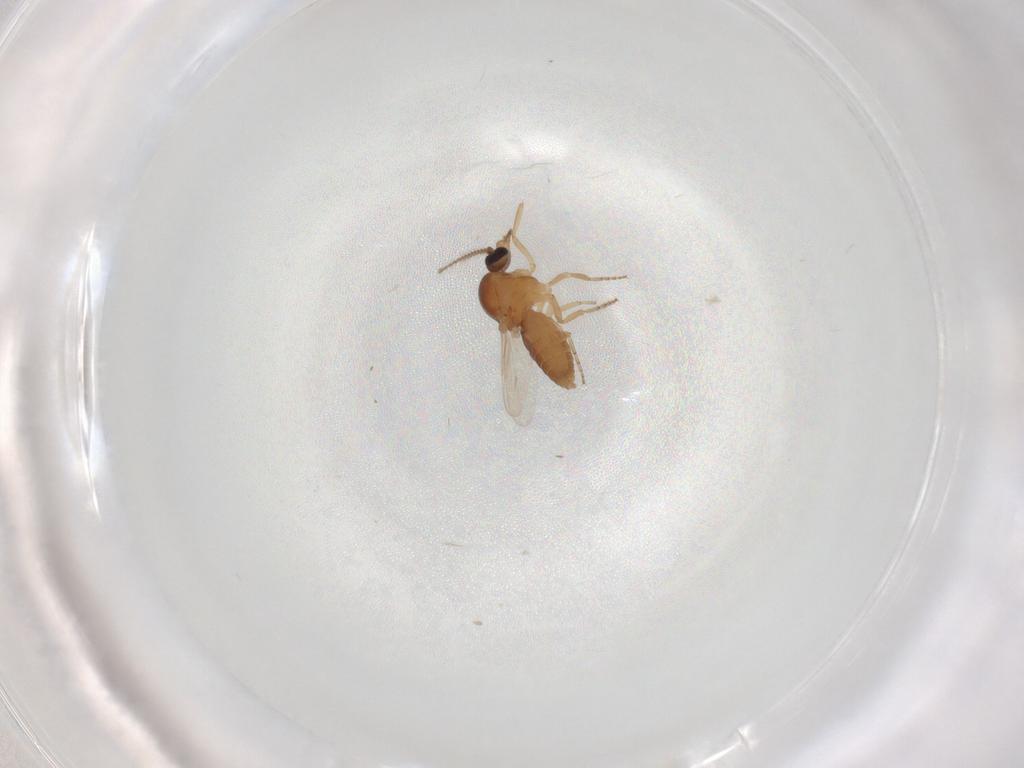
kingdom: Animalia
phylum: Arthropoda
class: Insecta
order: Diptera
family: Ceratopogonidae
